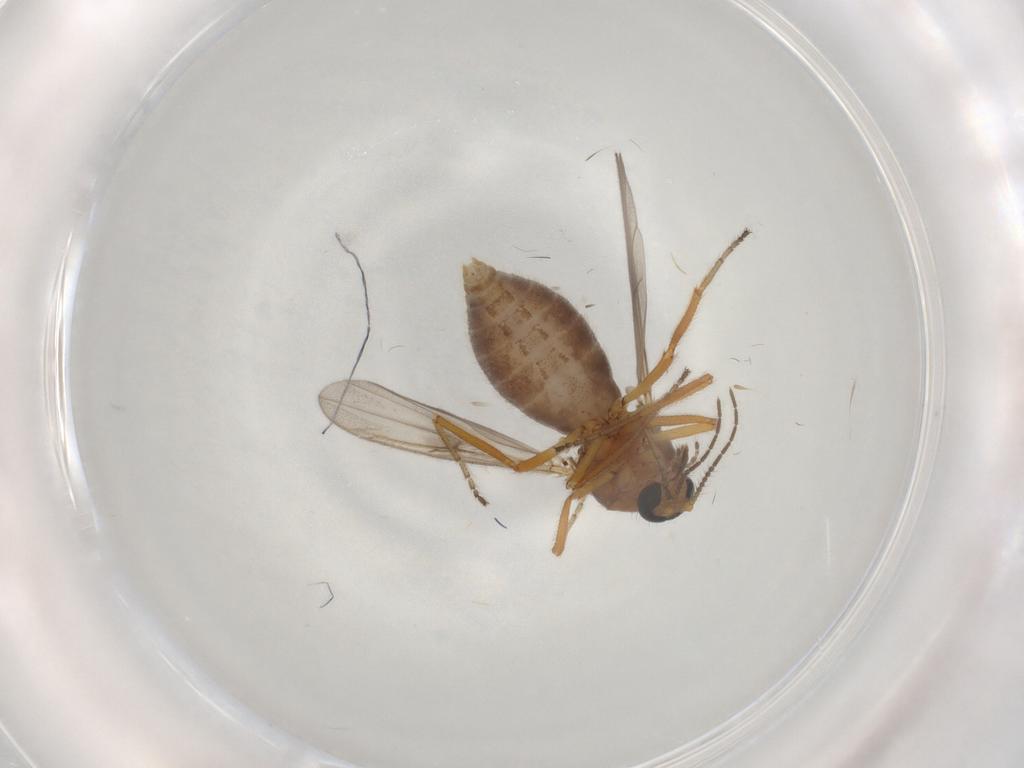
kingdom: Animalia
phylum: Arthropoda
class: Insecta
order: Diptera
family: Ceratopogonidae
